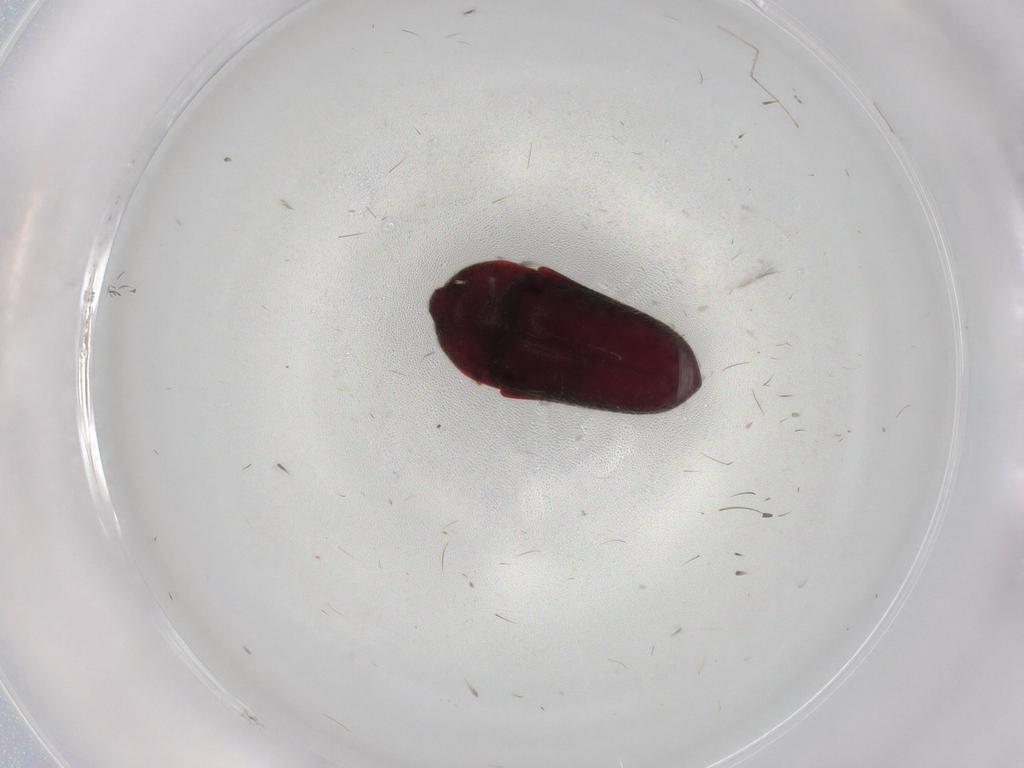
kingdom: Animalia
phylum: Arthropoda
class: Insecta
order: Coleoptera
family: Throscidae
